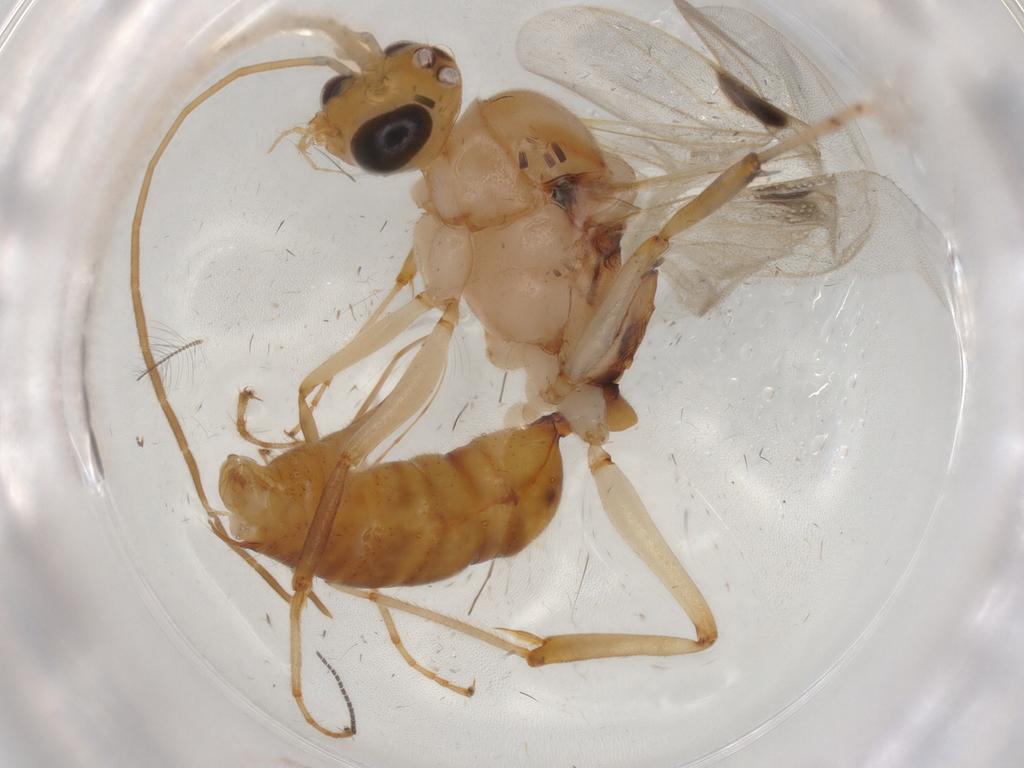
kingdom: Animalia
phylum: Arthropoda
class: Insecta
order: Hymenoptera
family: Formicidae
